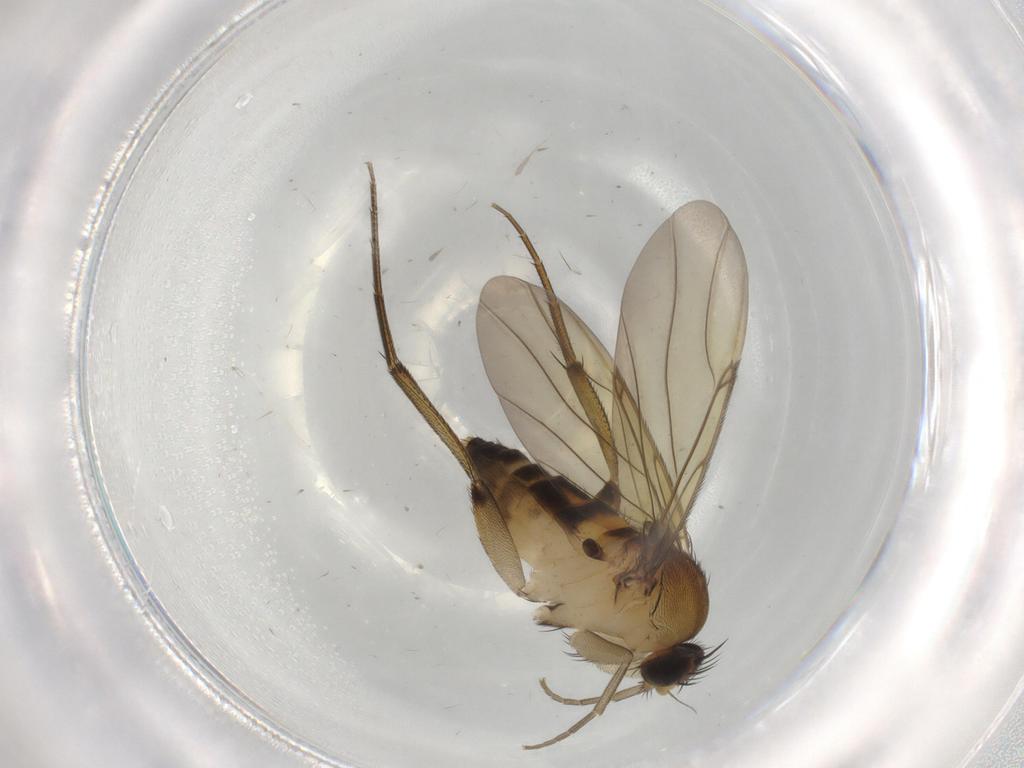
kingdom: Animalia
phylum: Arthropoda
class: Insecta
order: Diptera
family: Phoridae
